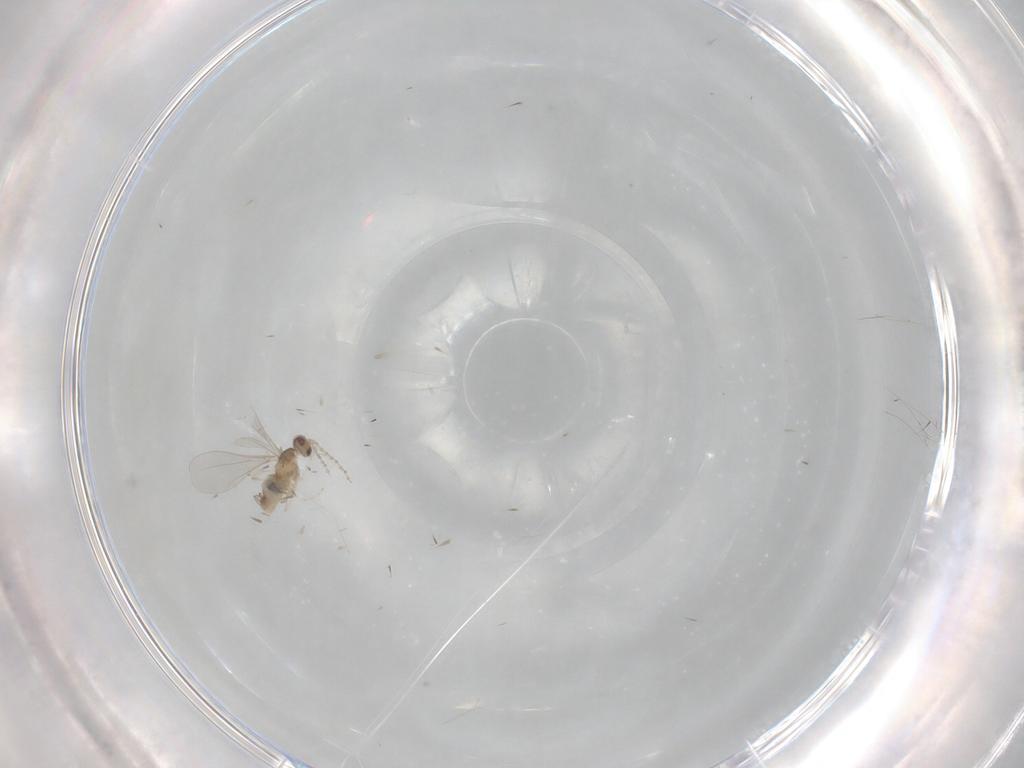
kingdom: Animalia
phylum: Arthropoda
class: Insecta
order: Diptera
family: Cecidomyiidae
